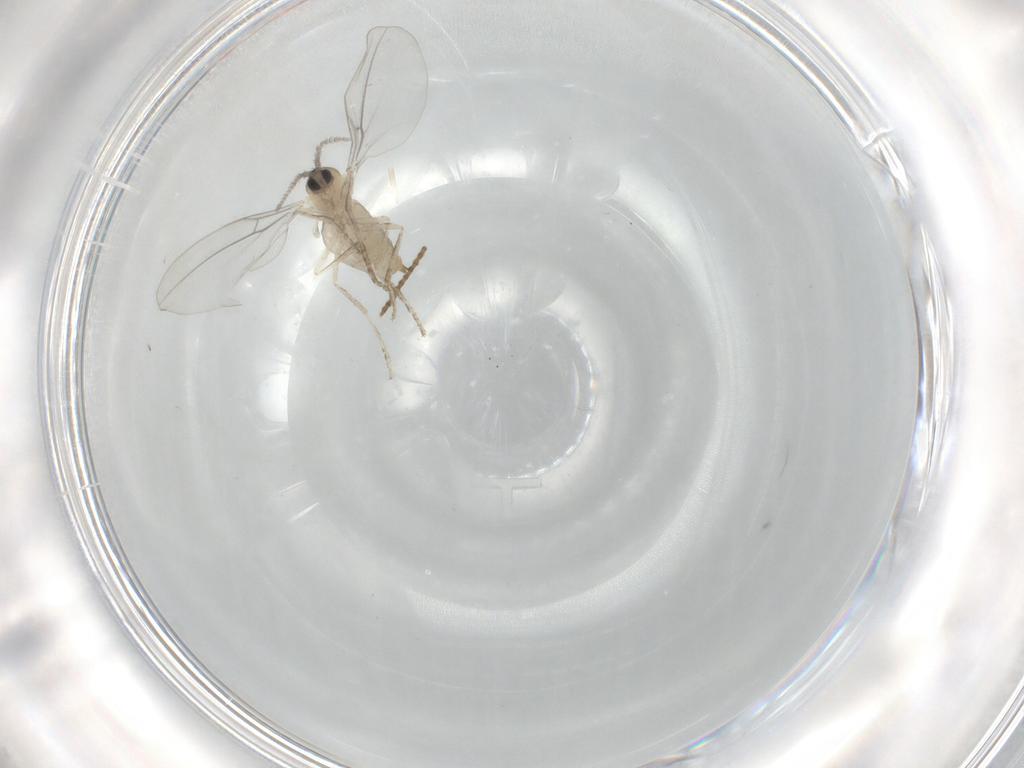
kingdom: Animalia
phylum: Arthropoda
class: Insecta
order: Diptera
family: Cecidomyiidae
